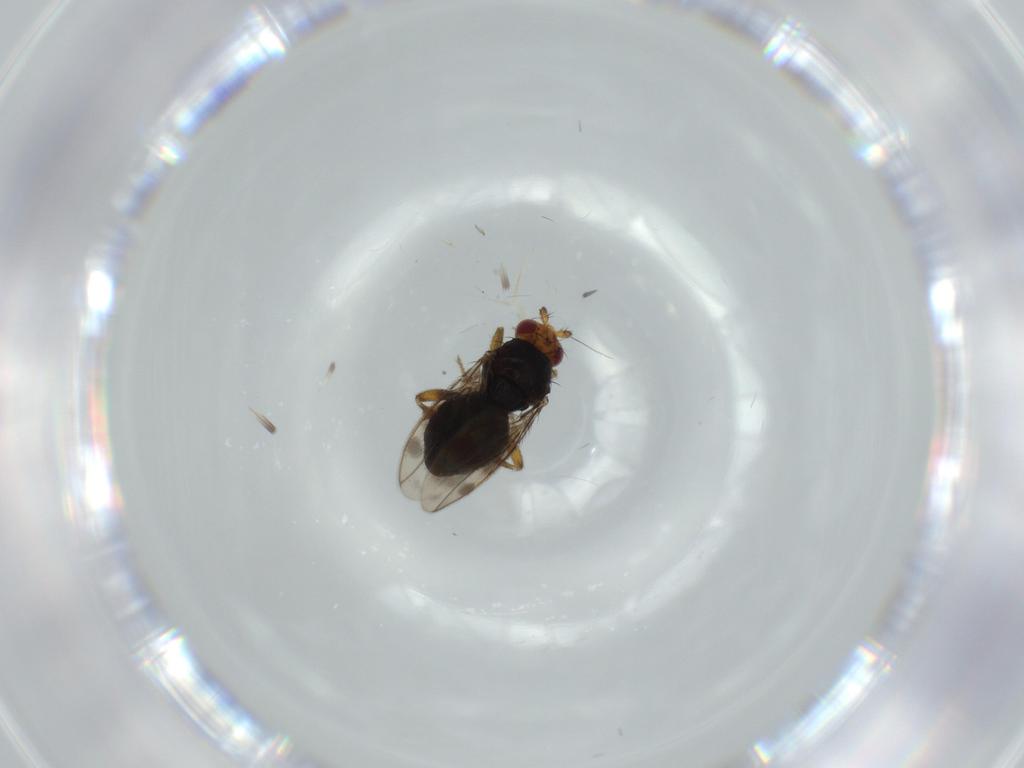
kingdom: Animalia
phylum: Arthropoda
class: Insecta
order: Diptera
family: Sphaeroceridae
